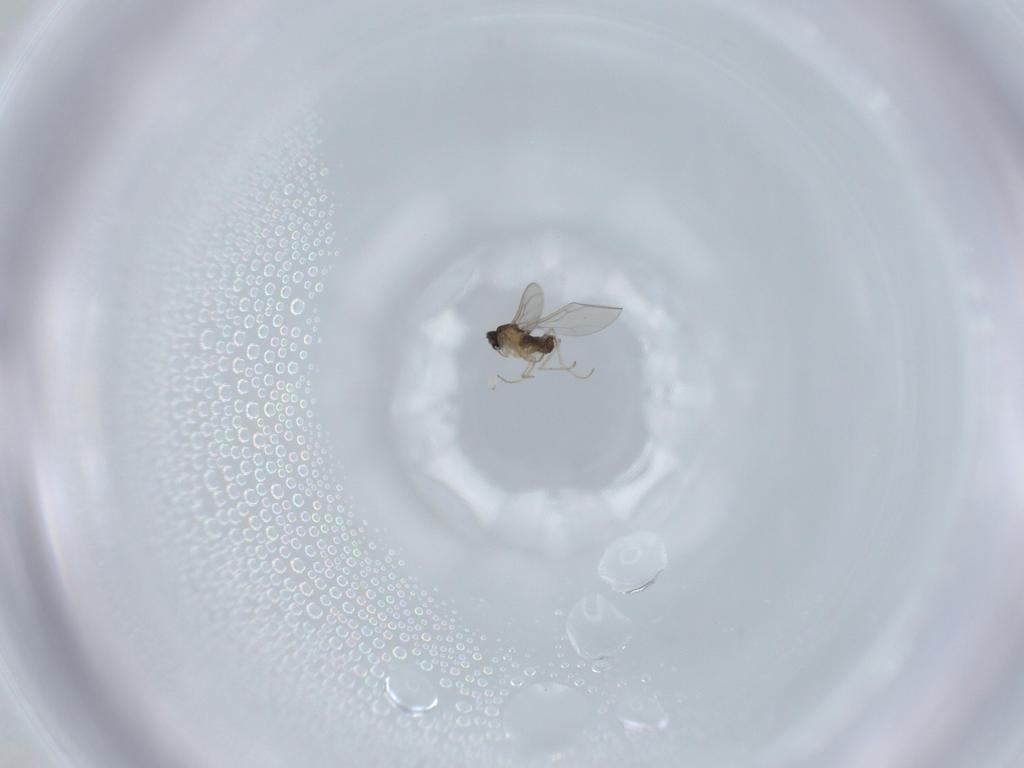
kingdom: Animalia
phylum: Arthropoda
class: Insecta
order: Diptera
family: Cecidomyiidae
